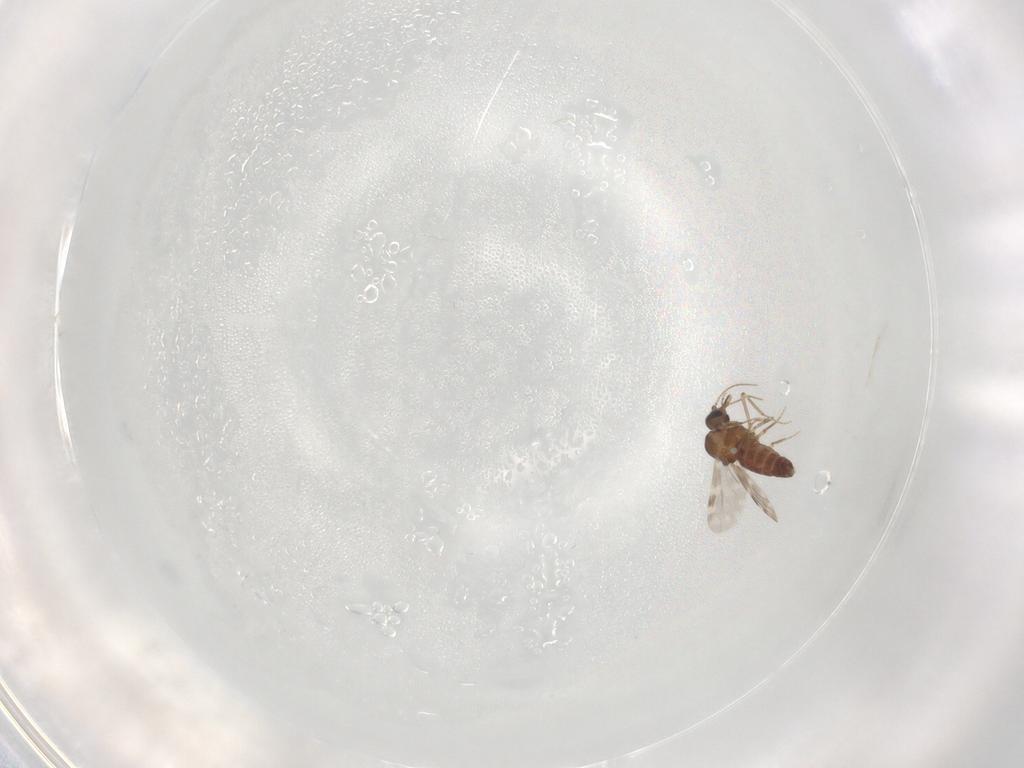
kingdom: Animalia
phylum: Arthropoda
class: Insecta
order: Diptera
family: Ceratopogonidae
